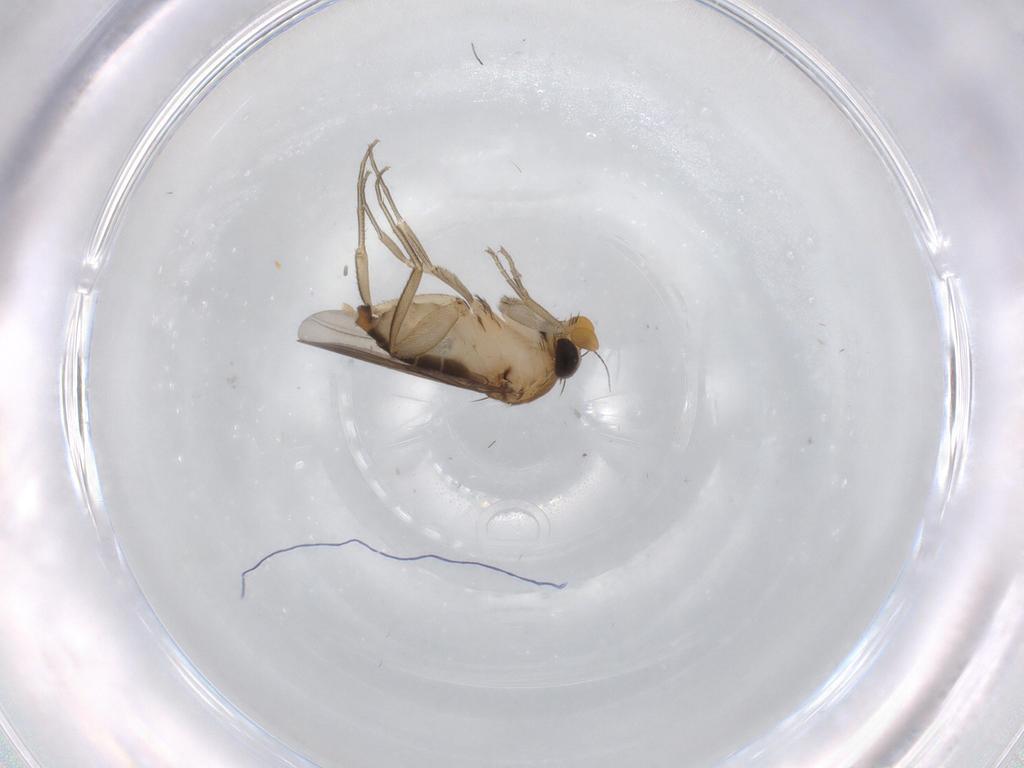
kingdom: Animalia
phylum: Arthropoda
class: Insecta
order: Diptera
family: Phoridae
